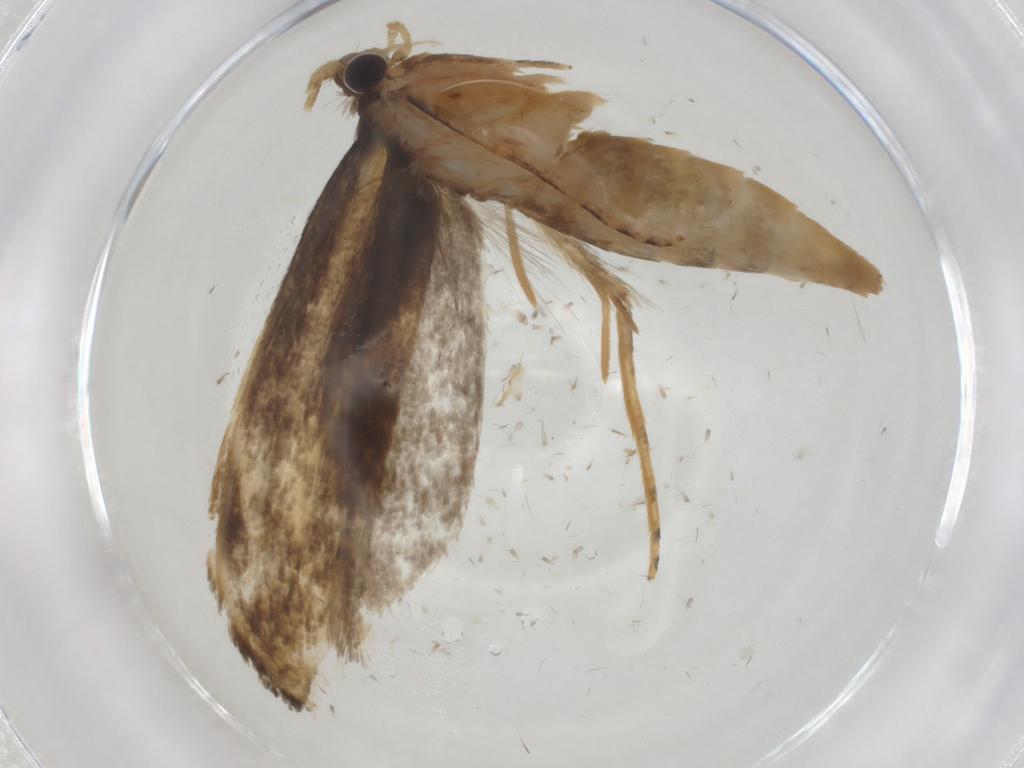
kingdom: Animalia
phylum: Arthropoda
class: Insecta
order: Lepidoptera
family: Tineidae
